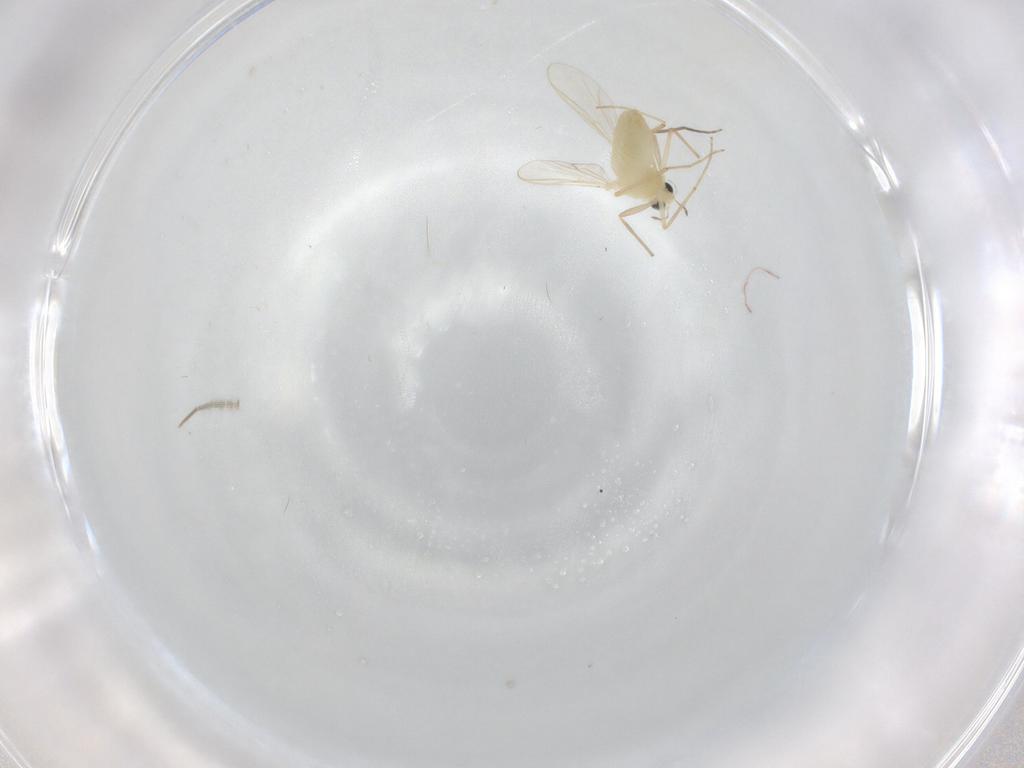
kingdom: Animalia
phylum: Arthropoda
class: Insecta
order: Diptera
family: Chironomidae
